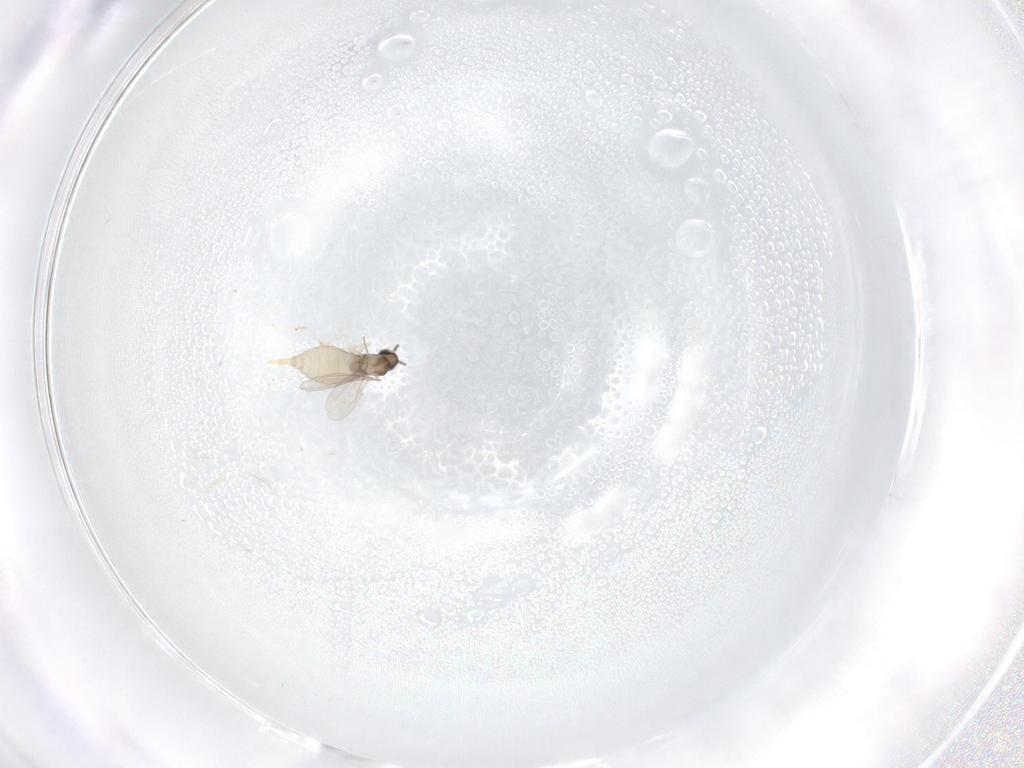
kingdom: Animalia
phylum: Arthropoda
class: Insecta
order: Diptera
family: Cecidomyiidae
